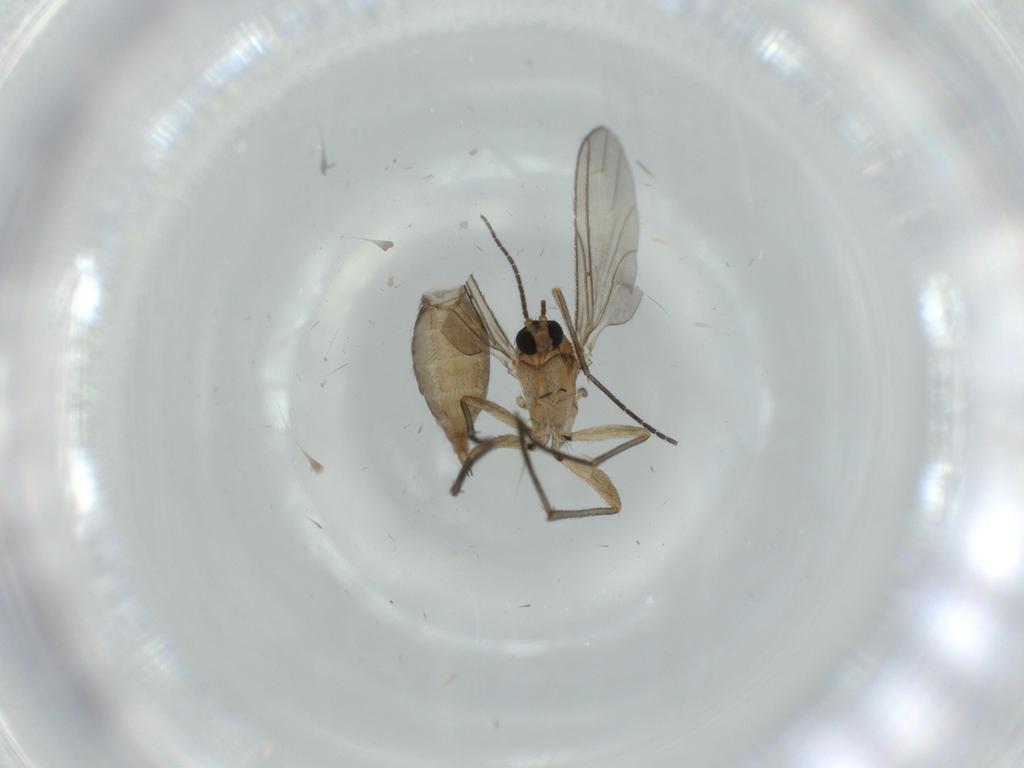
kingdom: Animalia
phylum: Arthropoda
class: Insecta
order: Diptera
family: Sciaridae
